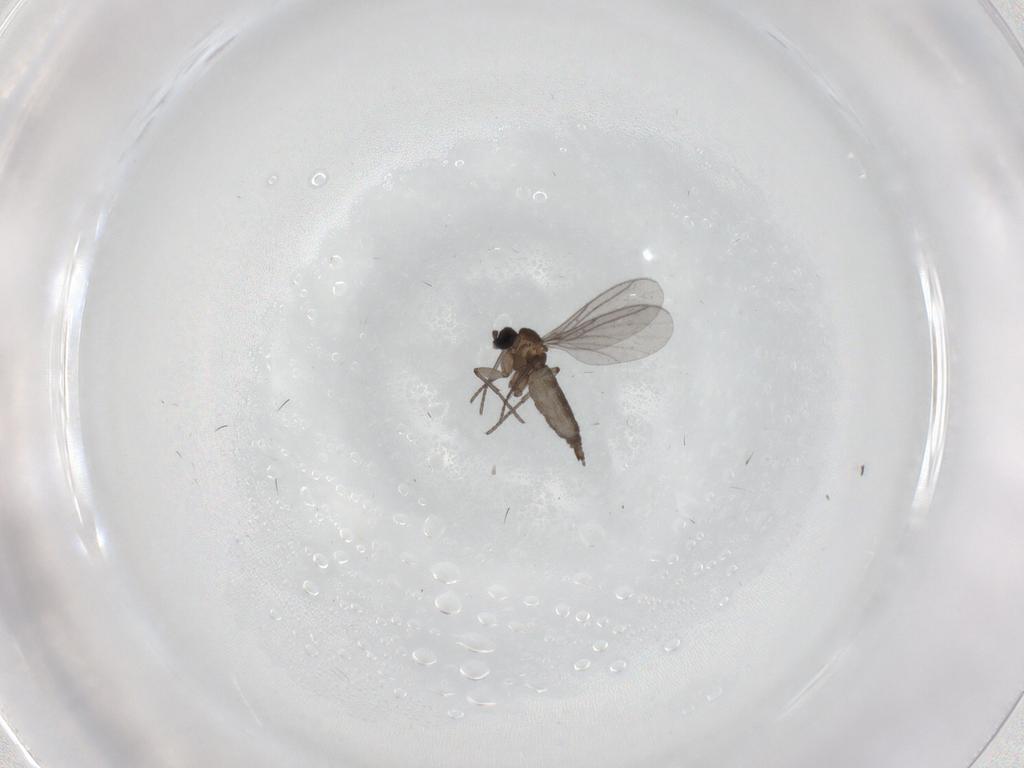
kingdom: Animalia
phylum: Arthropoda
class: Insecta
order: Diptera
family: Sciaridae
